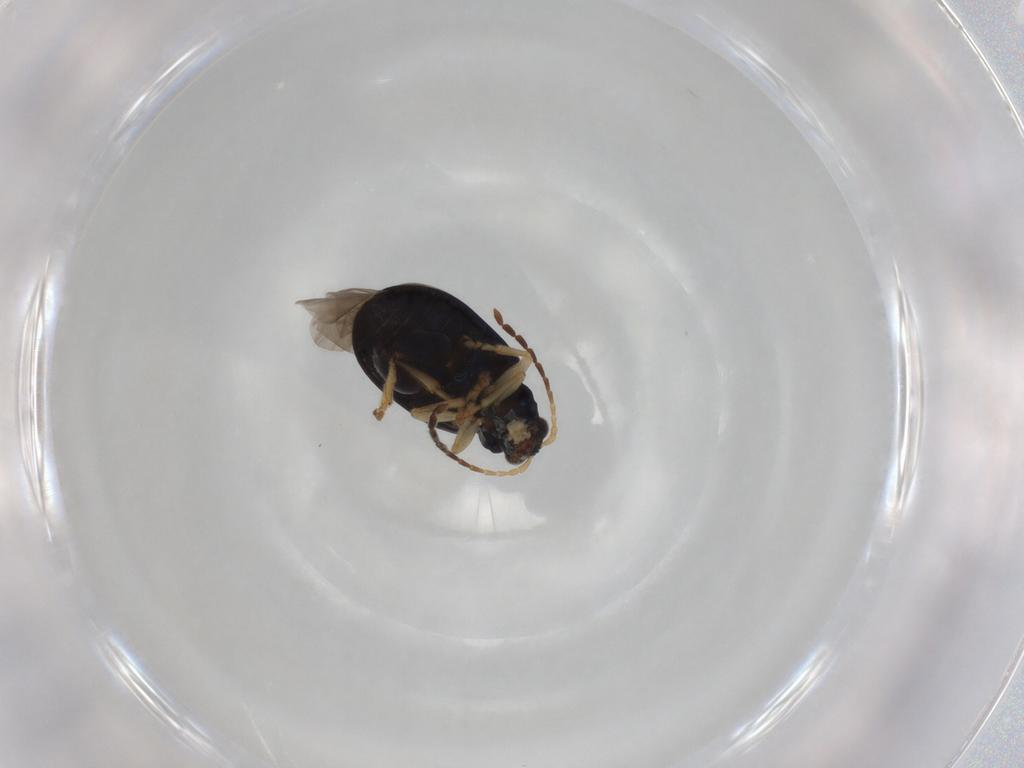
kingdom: Animalia
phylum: Arthropoda
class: Insecta
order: Coleoptera
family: Chrysomelidae
